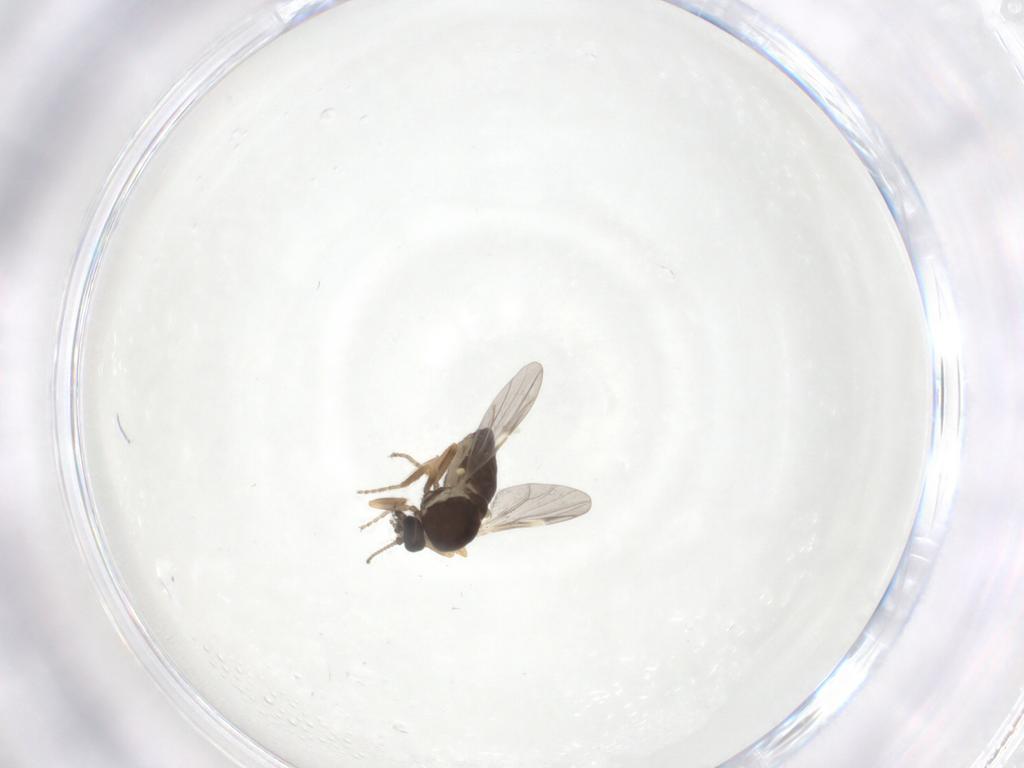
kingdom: Animalia
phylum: Arthropoda
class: Insecta
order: Diptera
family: Ceratopogonidae
